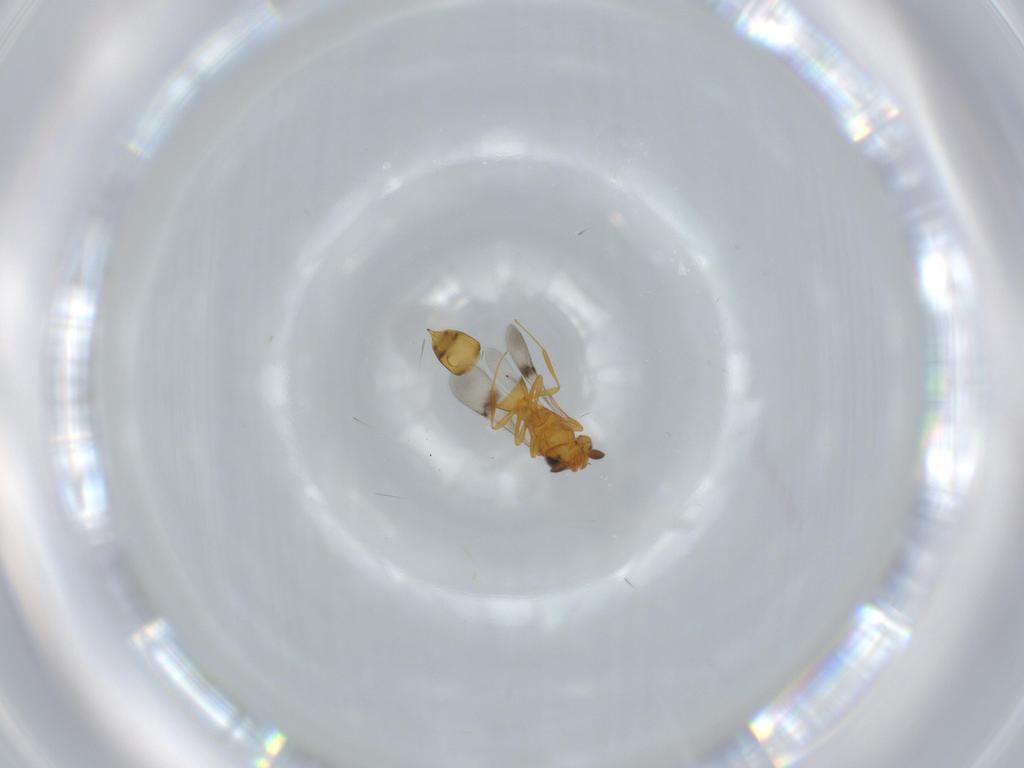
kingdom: Animalia
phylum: Arthropoda
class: Insecta
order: Hymenoptera
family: Scelionidae
